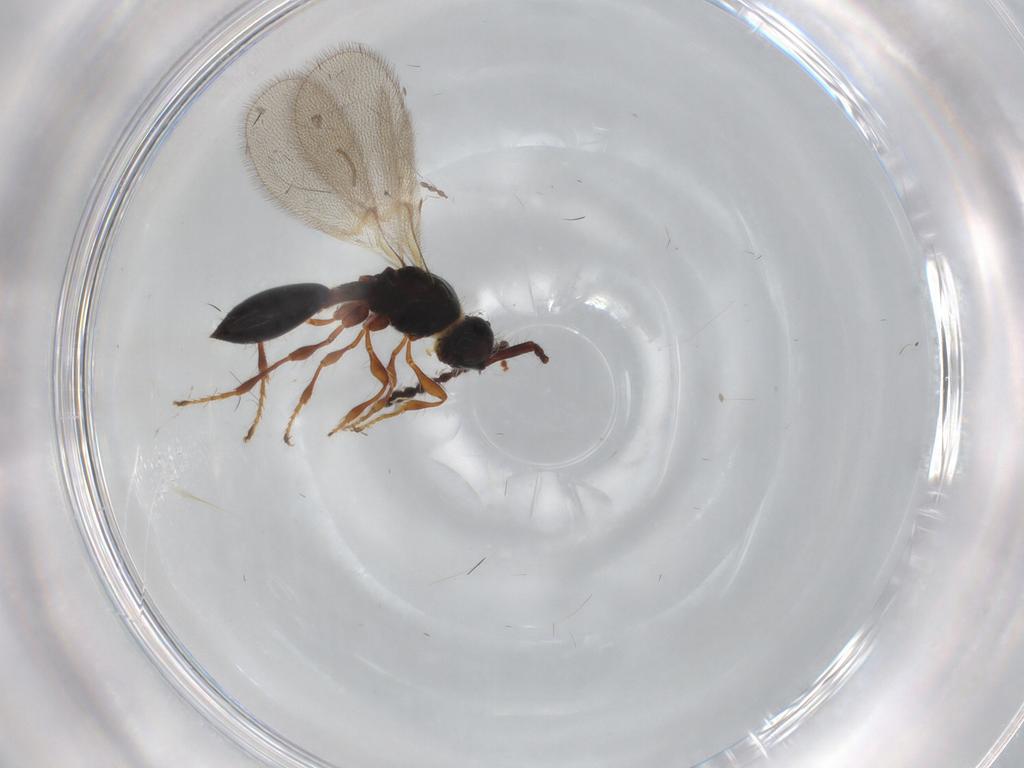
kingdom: Animalia
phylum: Arthropoda
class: Insecta
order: Hymenoptera
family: Diapriidae
